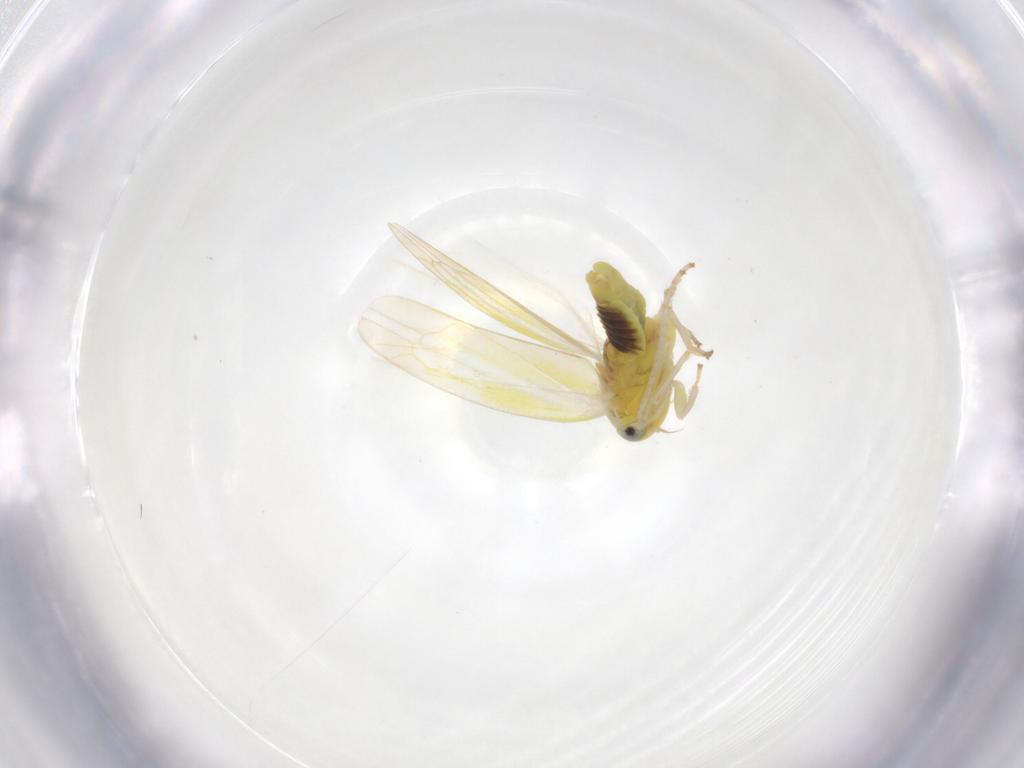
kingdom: Animalia
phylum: Arthropoda
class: Insecta
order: Hemiptera
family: Cicadellidae
